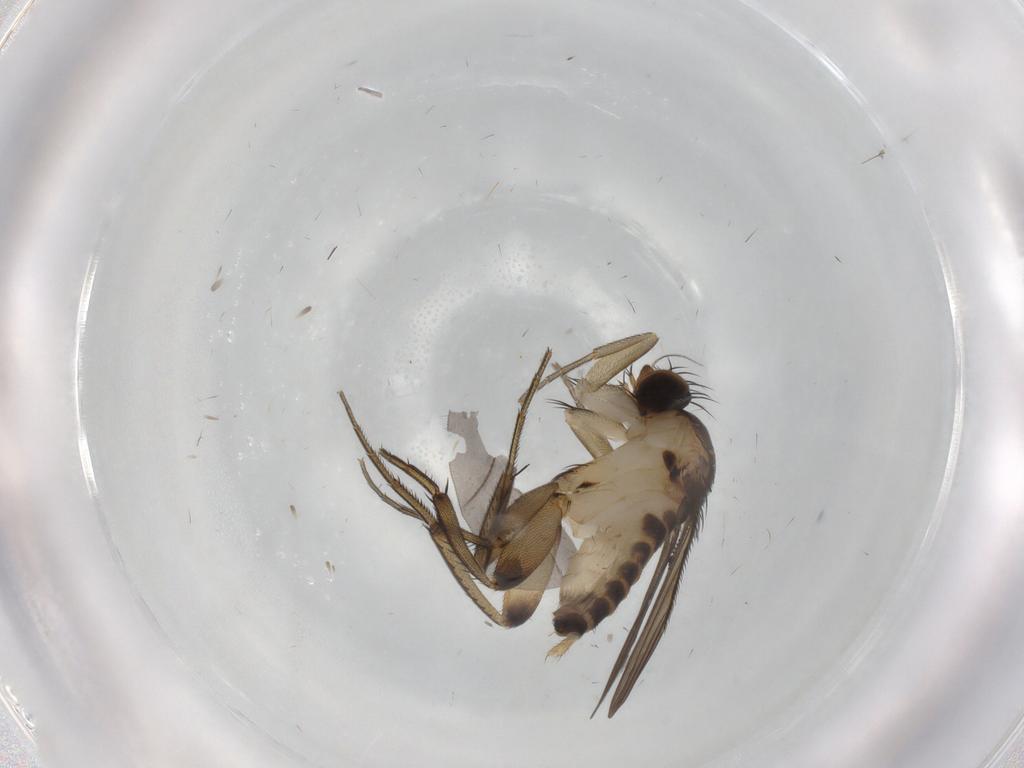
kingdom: Animalia
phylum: Arthropoda
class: Insecta
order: Diptera
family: Phoridae
